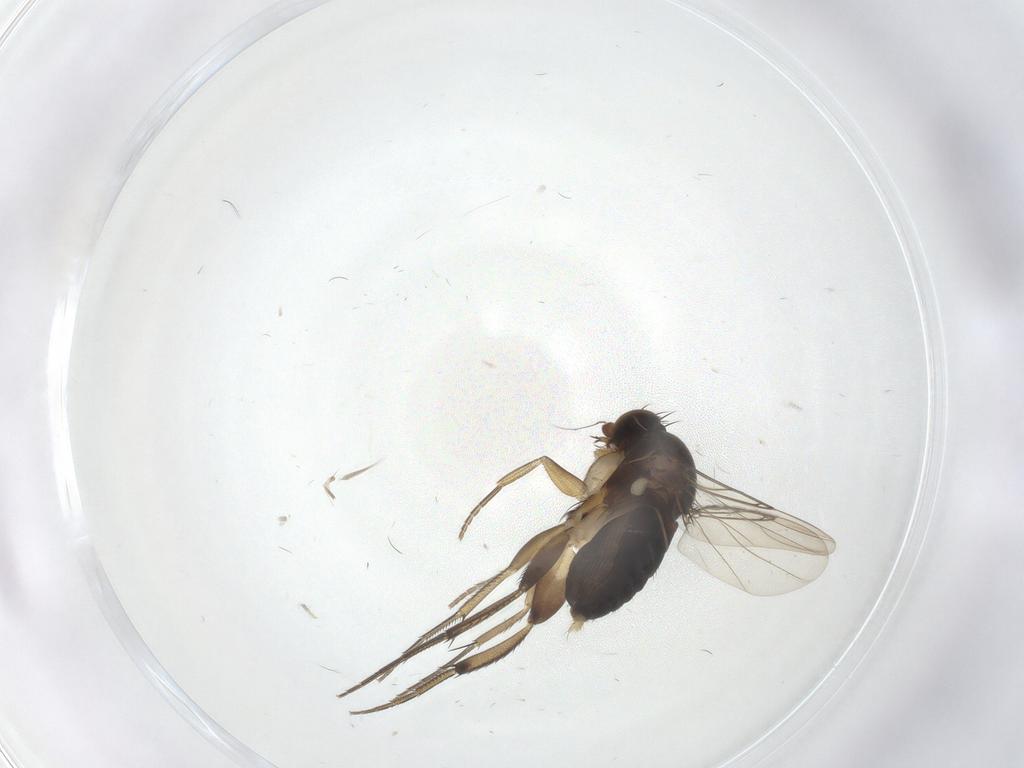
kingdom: Animalia
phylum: Arthropoda
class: Insecta
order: Diptera
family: Phoridae
